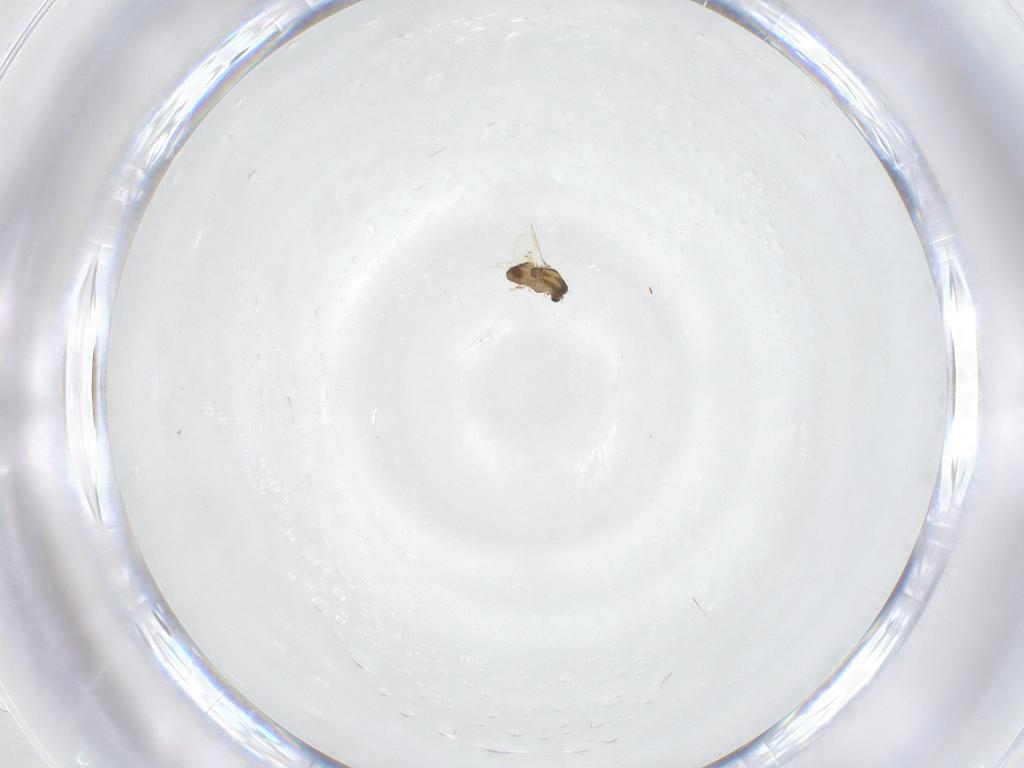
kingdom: Animalia
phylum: Arthropoda
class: Insecta
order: Diptera
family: Chironomidae
